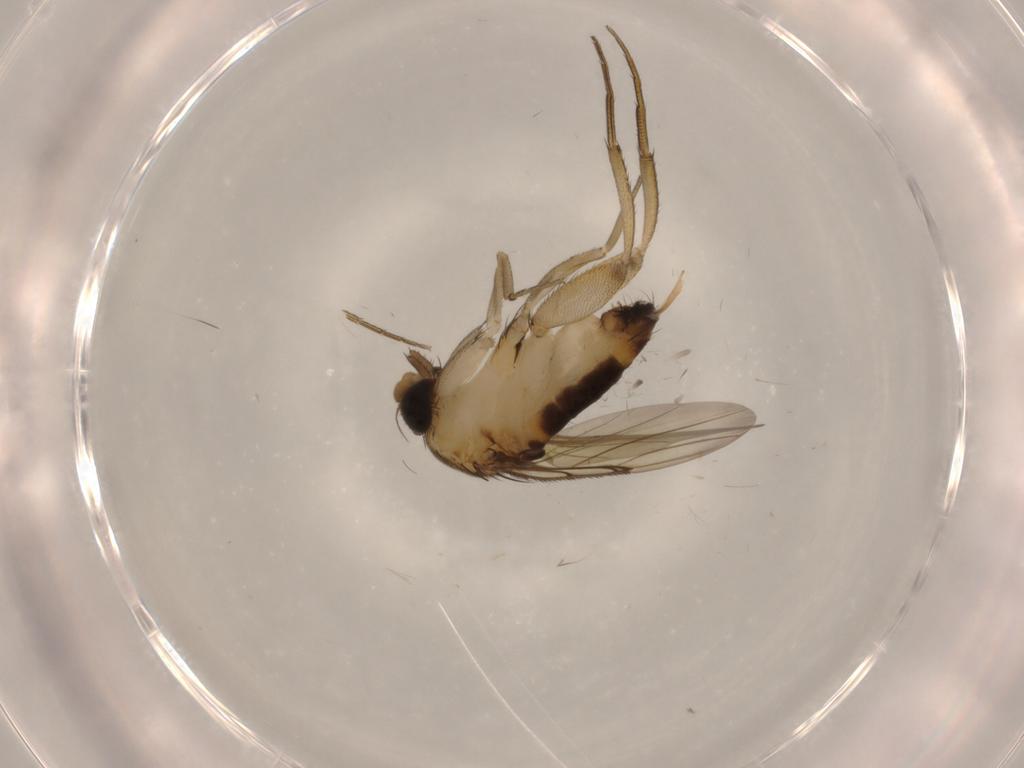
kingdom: Animalia
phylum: Arthropoda
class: Insecta
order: Diptera
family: Phoridae
